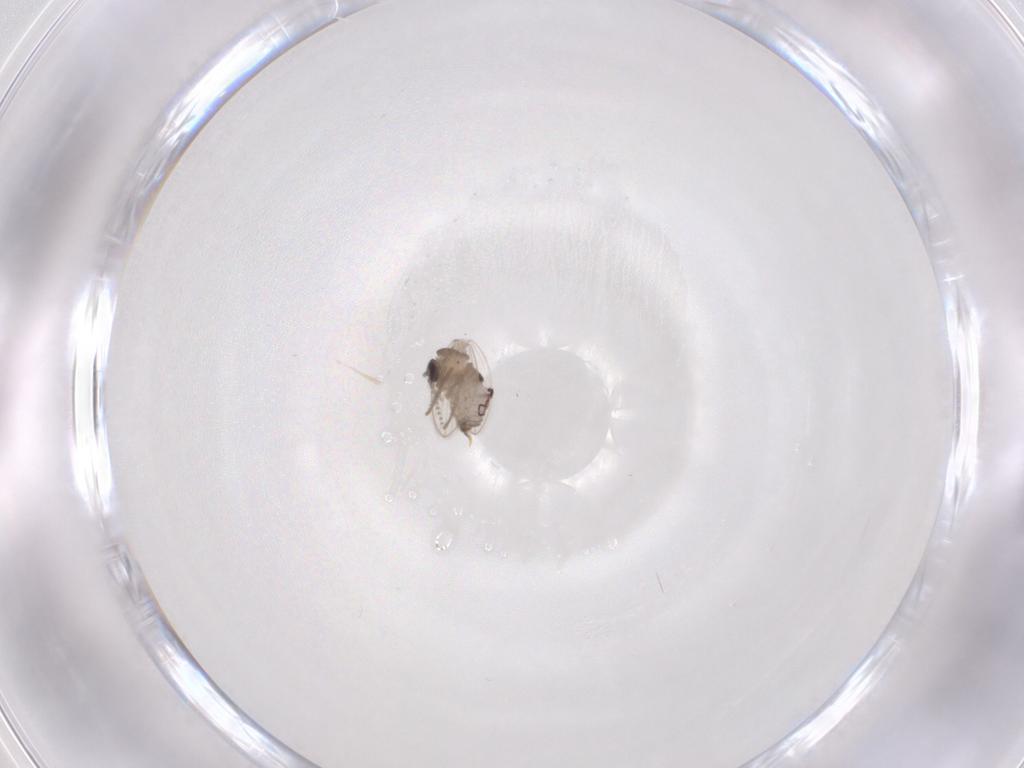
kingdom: Animalia
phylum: Arthropoda
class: Insecta
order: Diptera
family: Psychodidae
